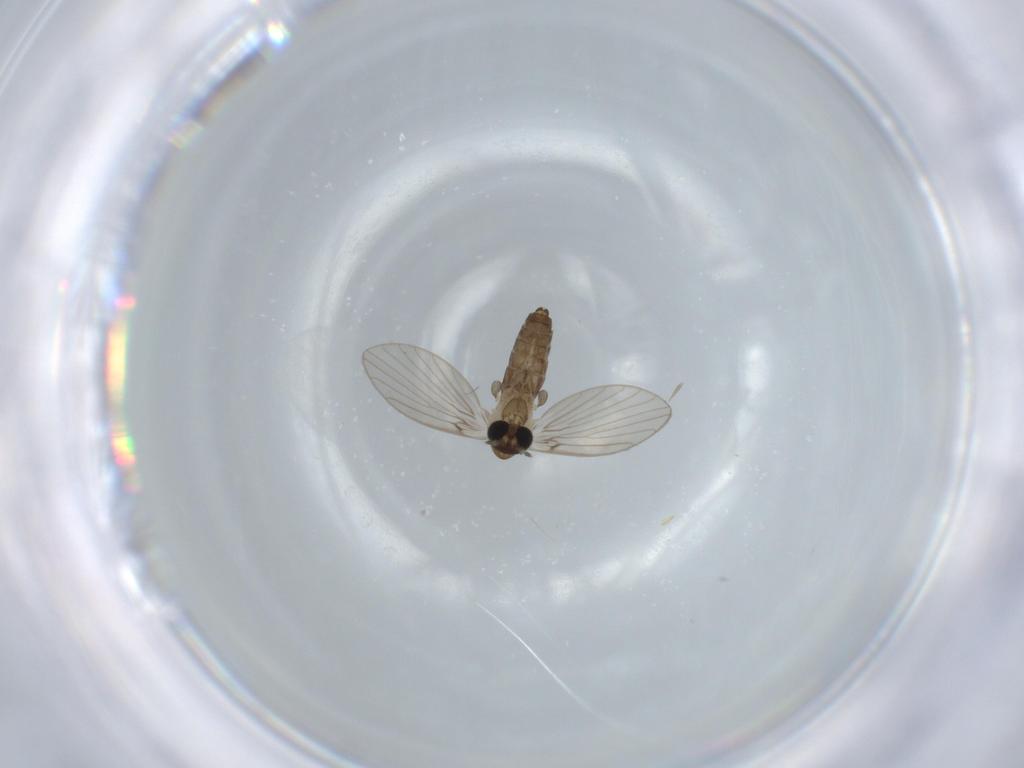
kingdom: Animalia
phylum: Arthropoda
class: Insecta
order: Diptera
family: Psychodidae
